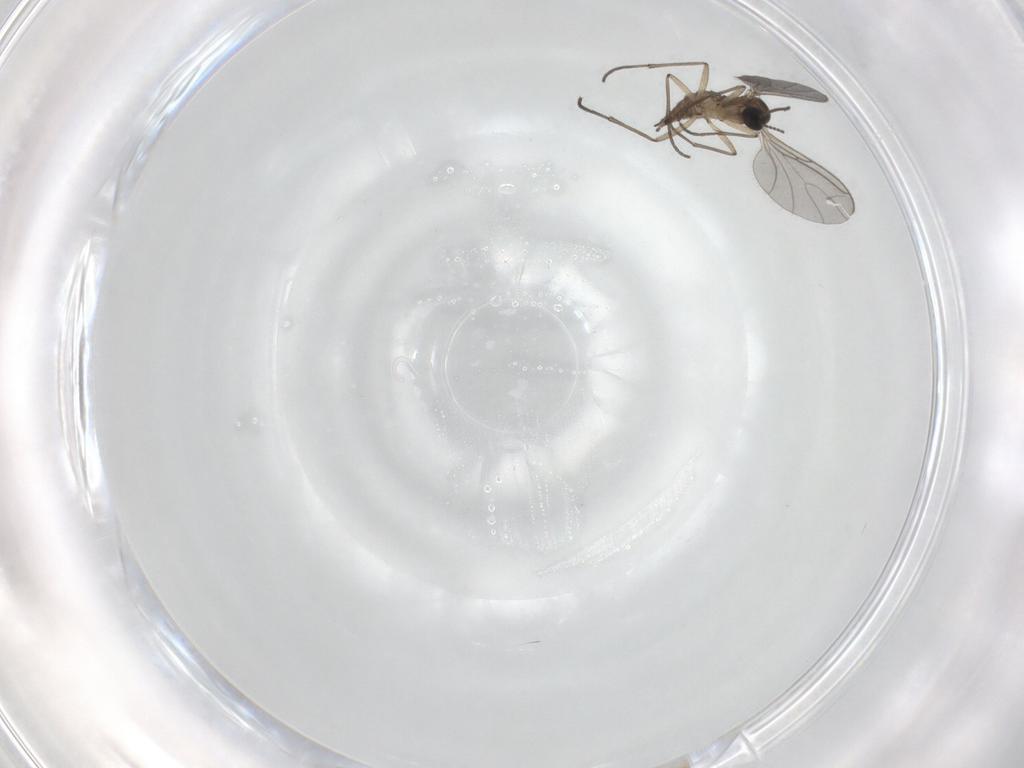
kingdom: Animalia
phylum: Arthropoda
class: Insecta
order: Diptera
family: Sciaridae
